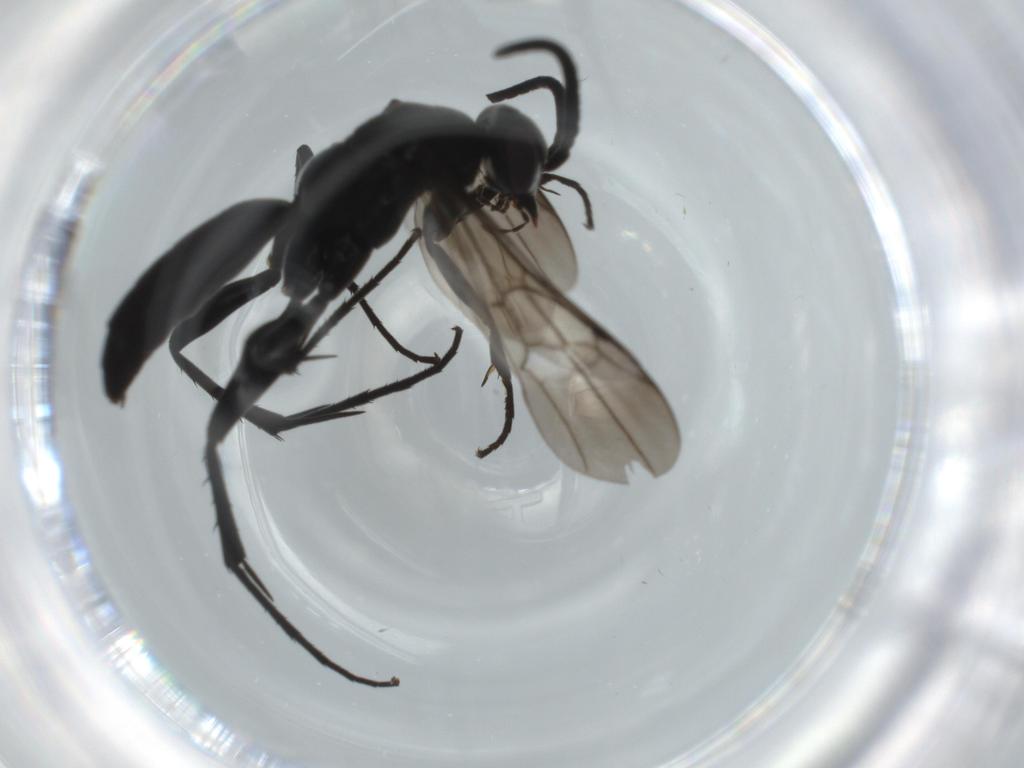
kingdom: Animalia
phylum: Arthropoda
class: Insecta
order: Hymenoptera
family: Pompilidae
